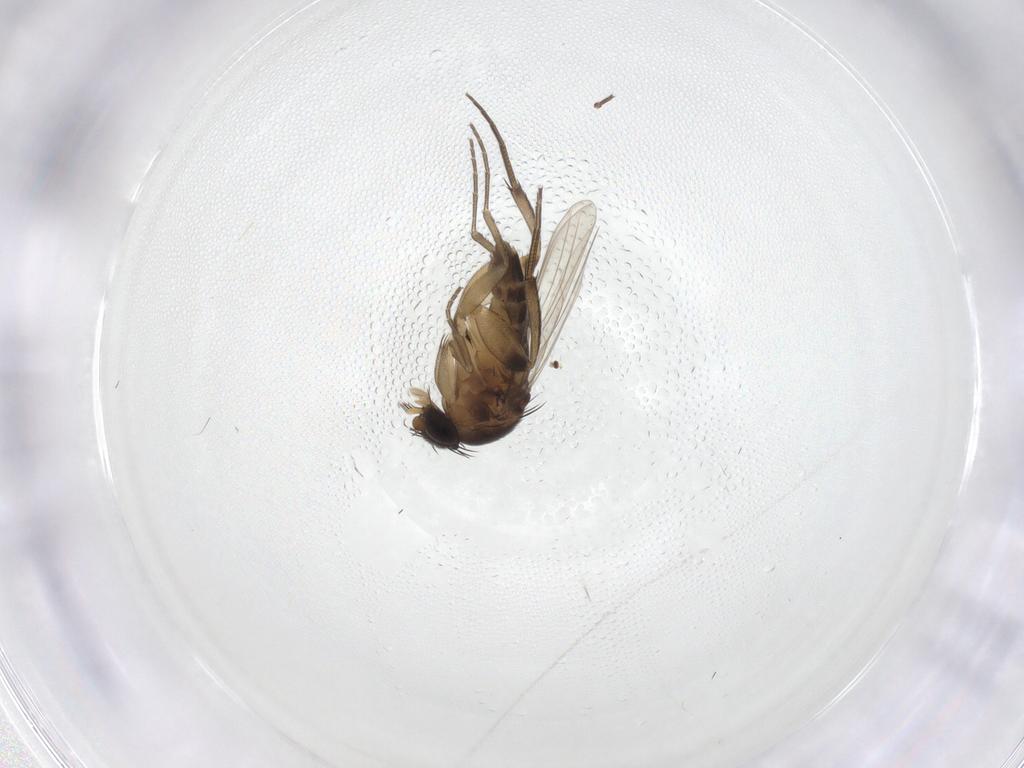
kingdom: Animalia
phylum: Arthropoda
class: Insecta
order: Diptera
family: Phoridae
